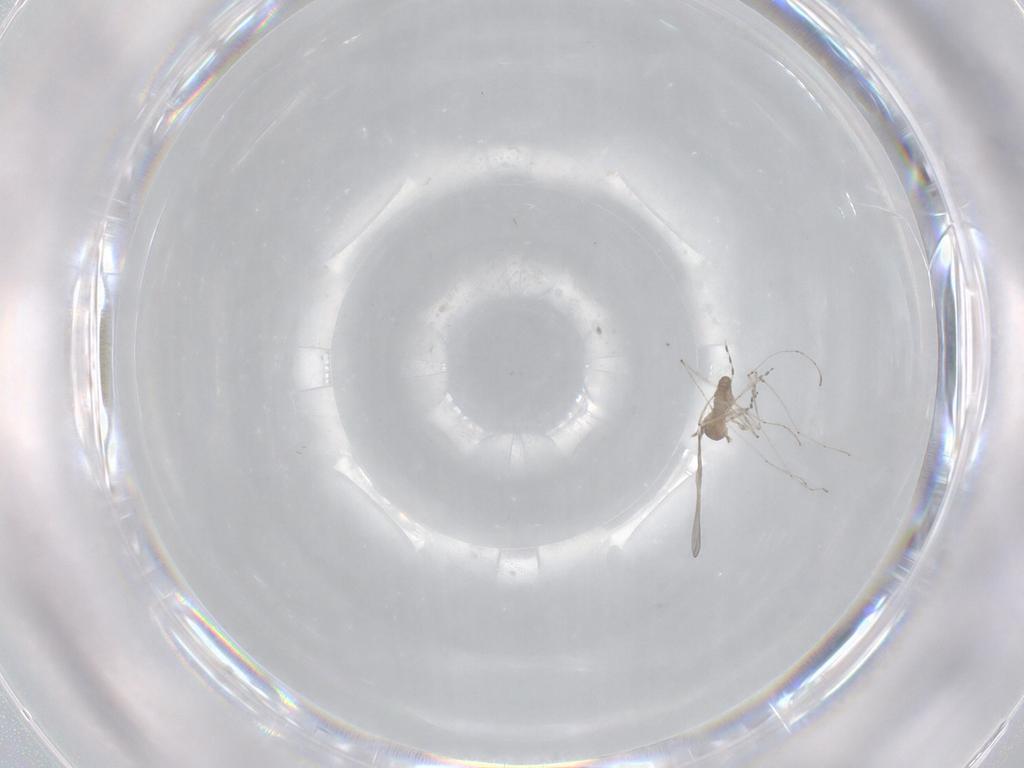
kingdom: Animalia
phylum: Arthropoda
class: Insecta
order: Diptera
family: Cecidomyiidae
